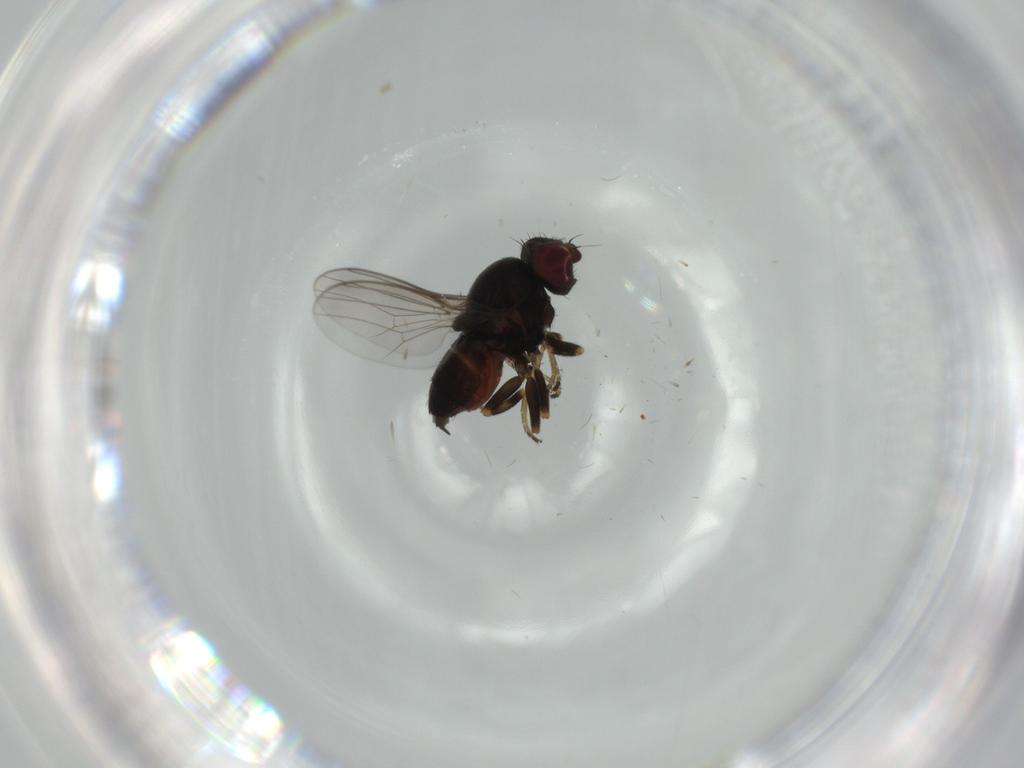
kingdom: Animalia
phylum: Arthropoda
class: Insecta
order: Diptera
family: Chloropidae
